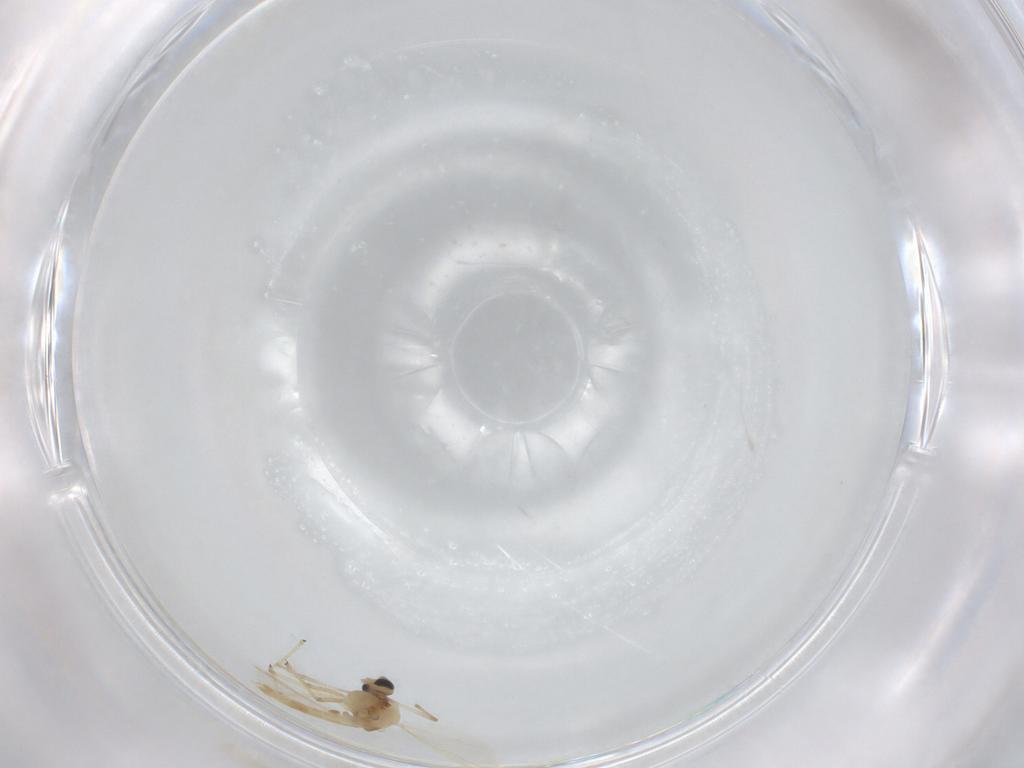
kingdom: Animalia
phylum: Arthropoda
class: Insecta
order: Diptera
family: Chironomidae
